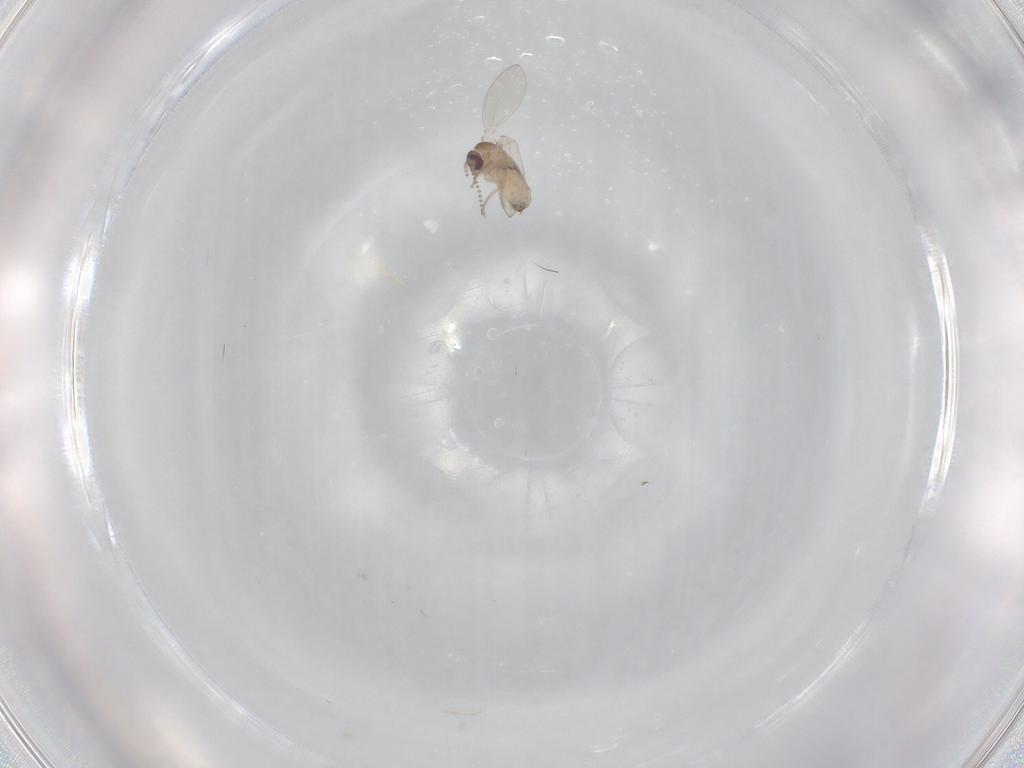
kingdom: Animalia
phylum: Arthropoda
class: Insecta
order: Diptera
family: Psychodidae
